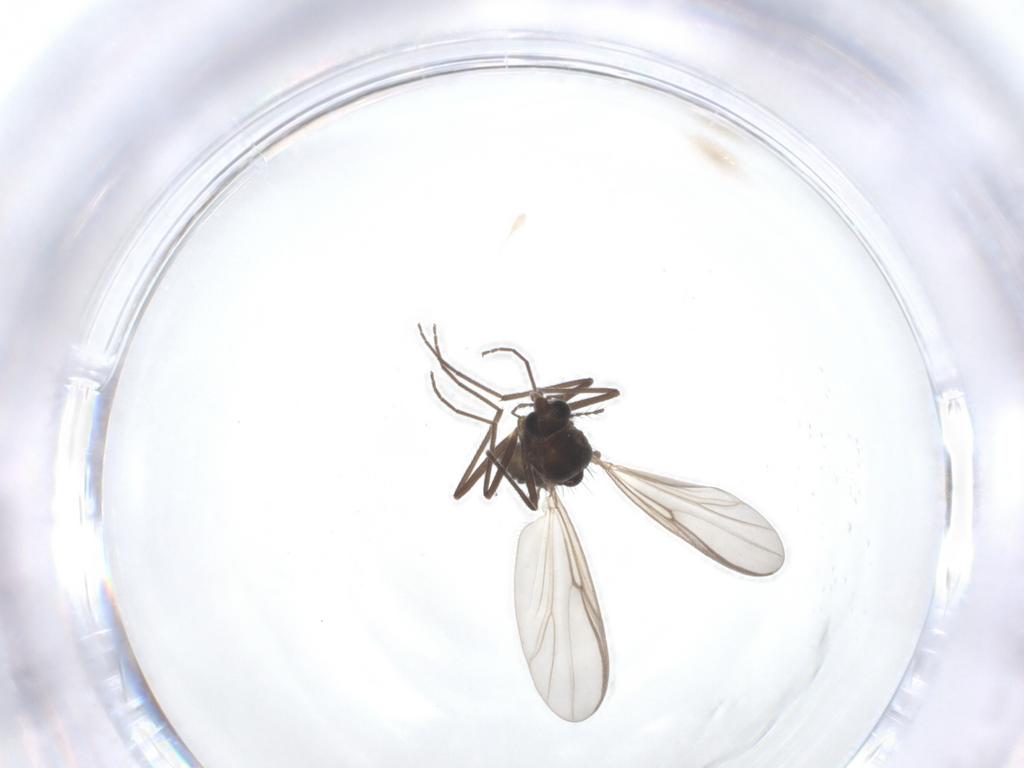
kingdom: Animalia
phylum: Arthropoda
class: Insecta
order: Diptera
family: Chironomidae
